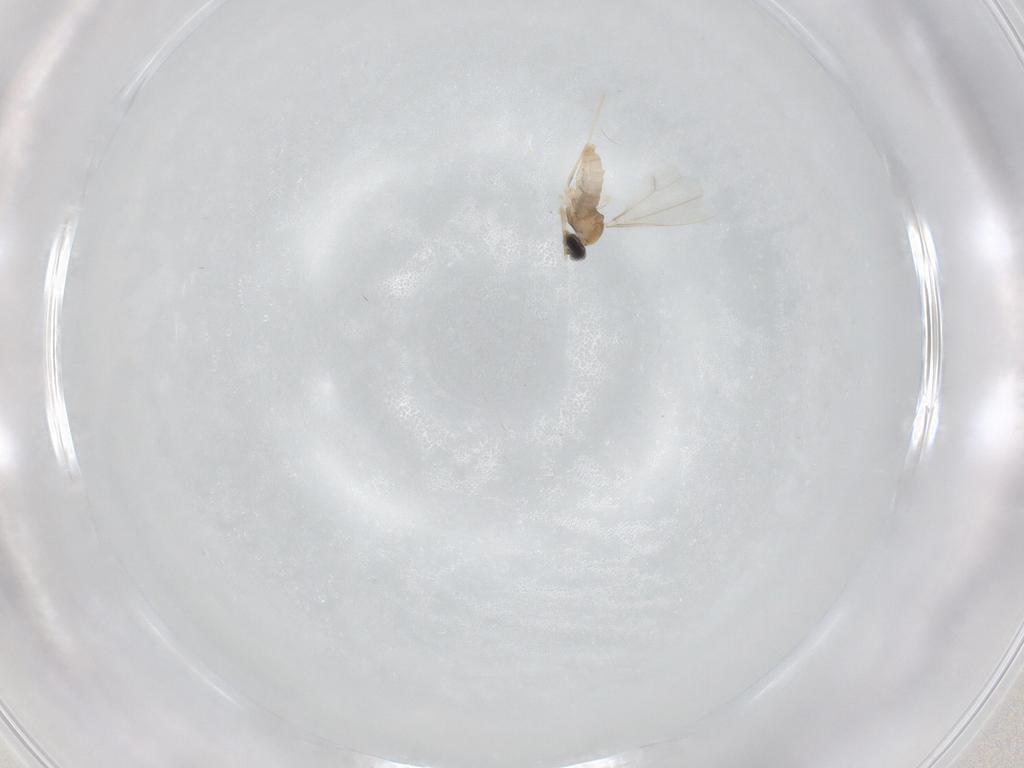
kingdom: Animalia
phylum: Arthropoda
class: Insecta
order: Diptera
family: Cecidomyiidae
